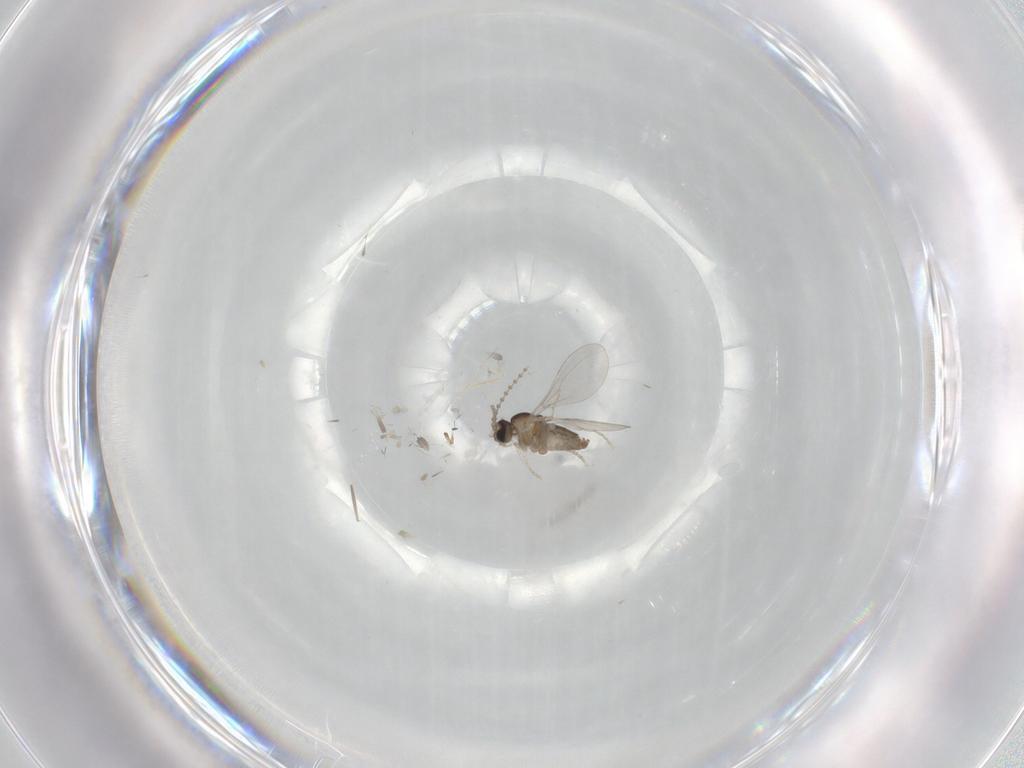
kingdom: Animalia
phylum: Arthropoda
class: Insecta
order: Diptera
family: Cecidomyiidae
